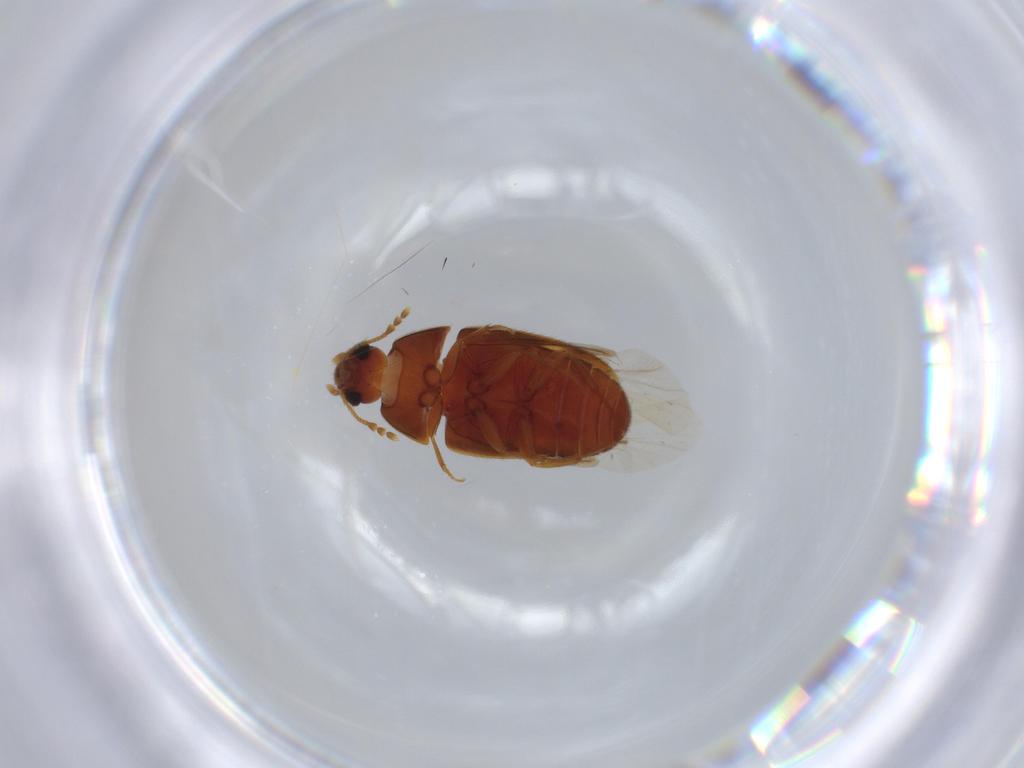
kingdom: Animalia
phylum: Arthropoda
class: Insecta
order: Coleoptera
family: Mycetophagidae
